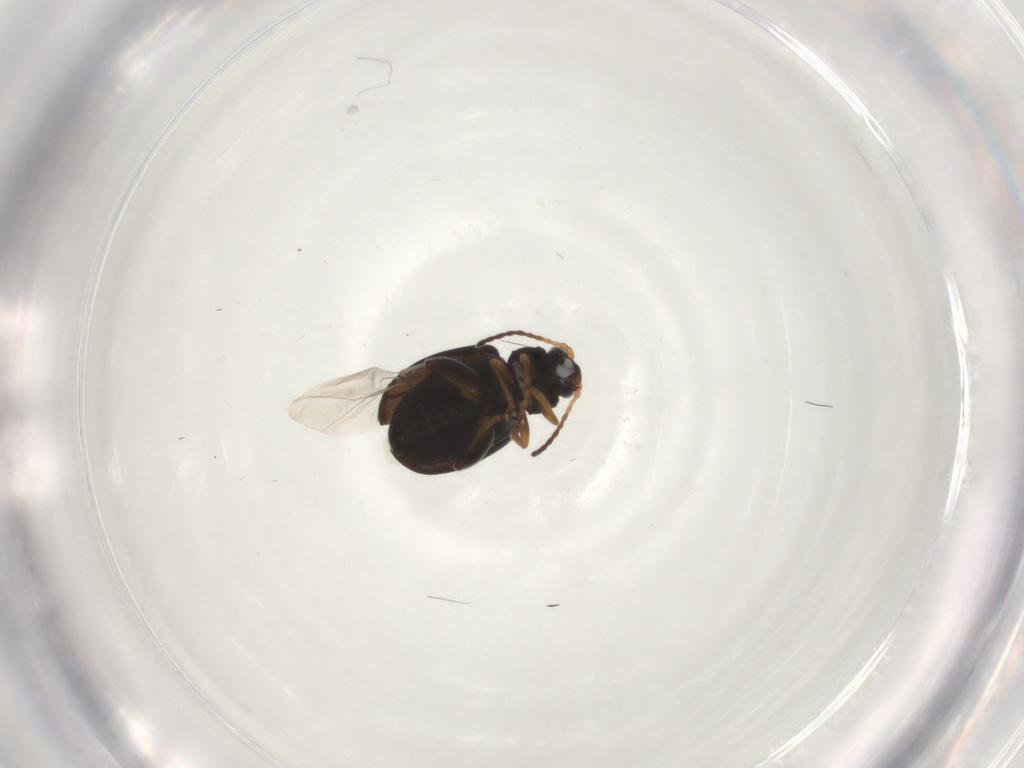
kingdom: Animalia
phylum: Arthropoda
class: Insecta
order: Coleoptera
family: Chrysomelidae
